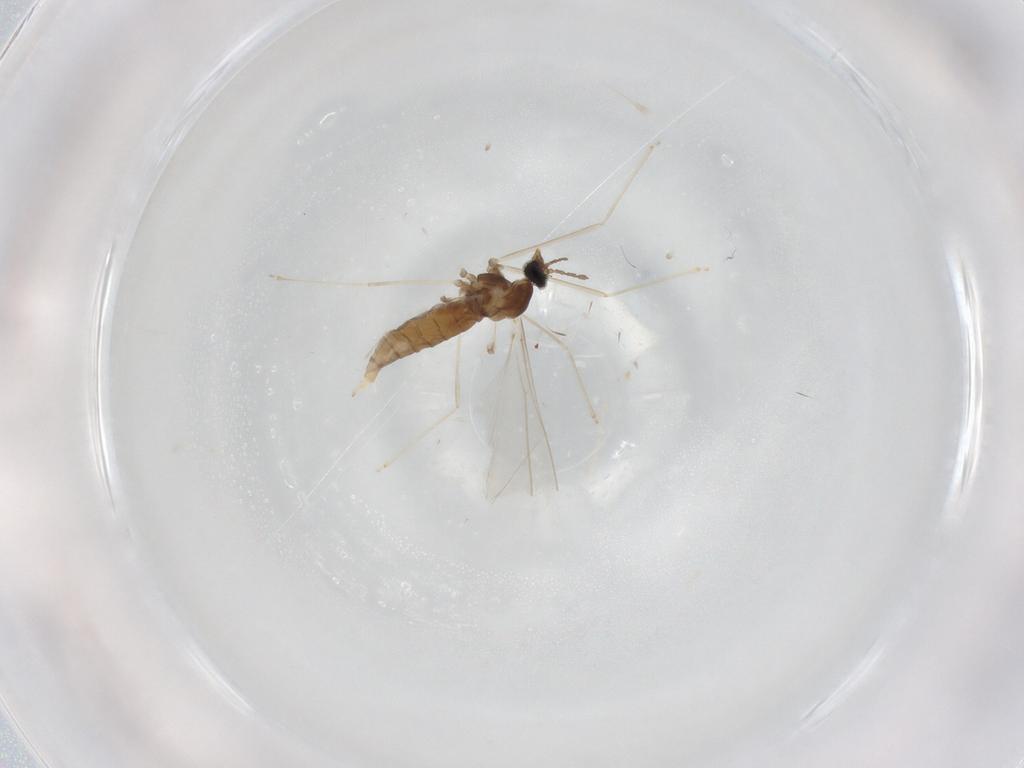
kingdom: Animalia
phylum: Arthropoda
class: Insecta
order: Diptera
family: Cecidomyiidae
